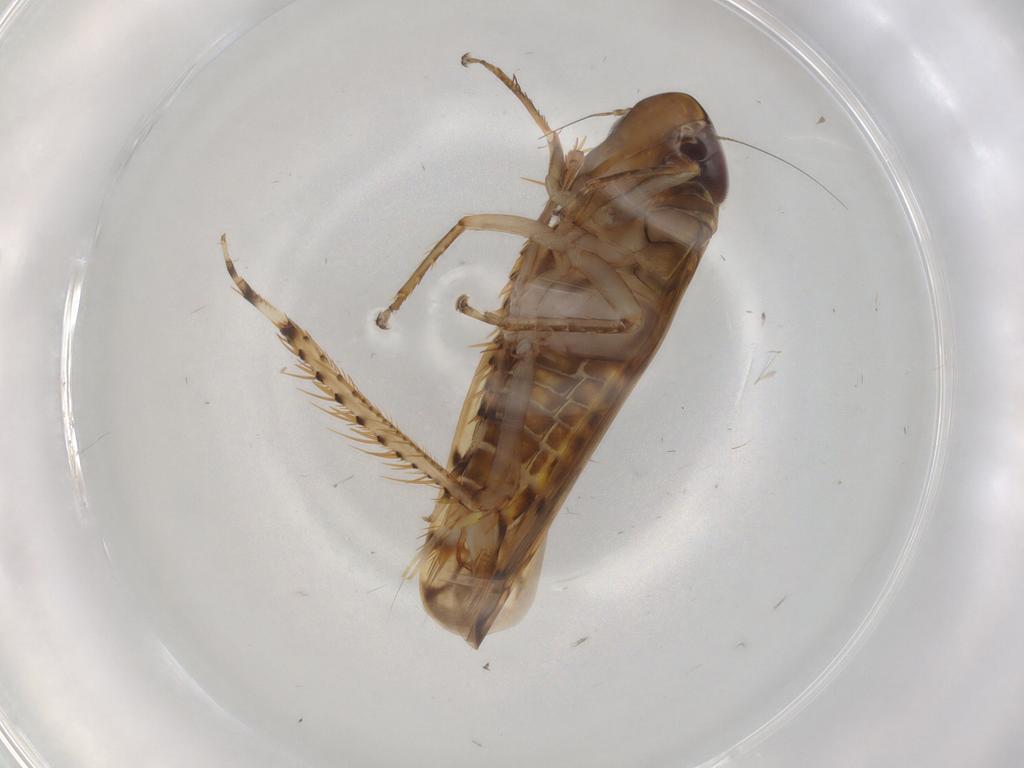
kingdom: Animalia
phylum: Arthropoda
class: Insecta
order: Hemiptera
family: Cicadellidae
